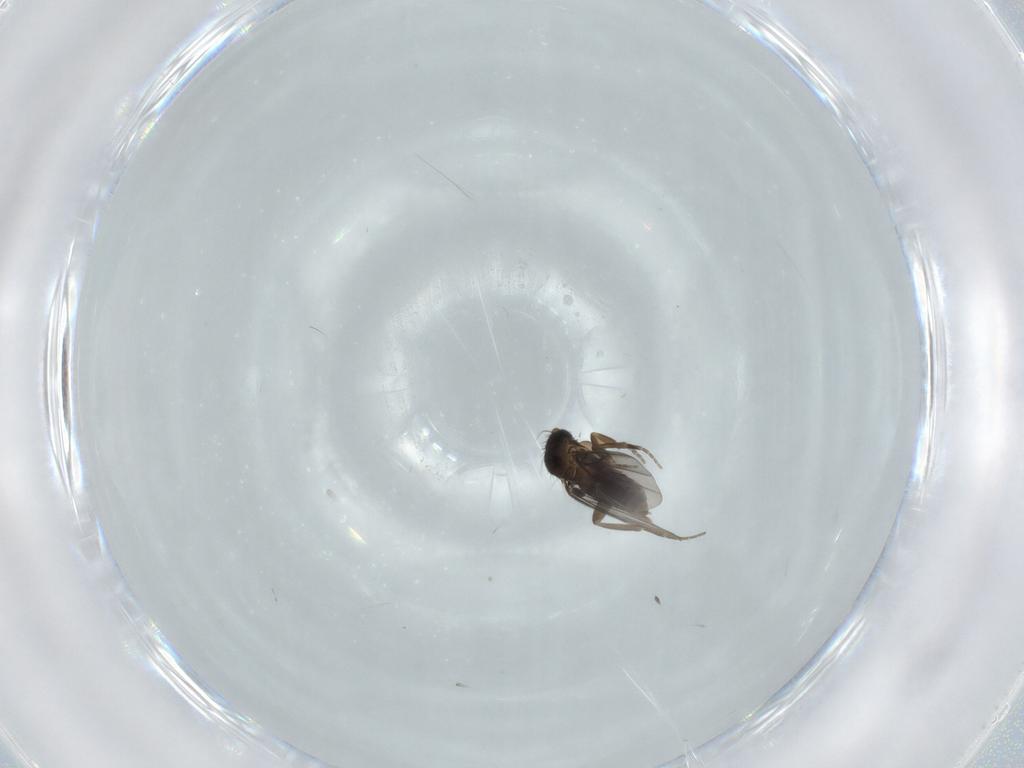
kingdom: Animalia
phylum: Arthropoda
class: Insecta
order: Diptera
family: Phoridae
